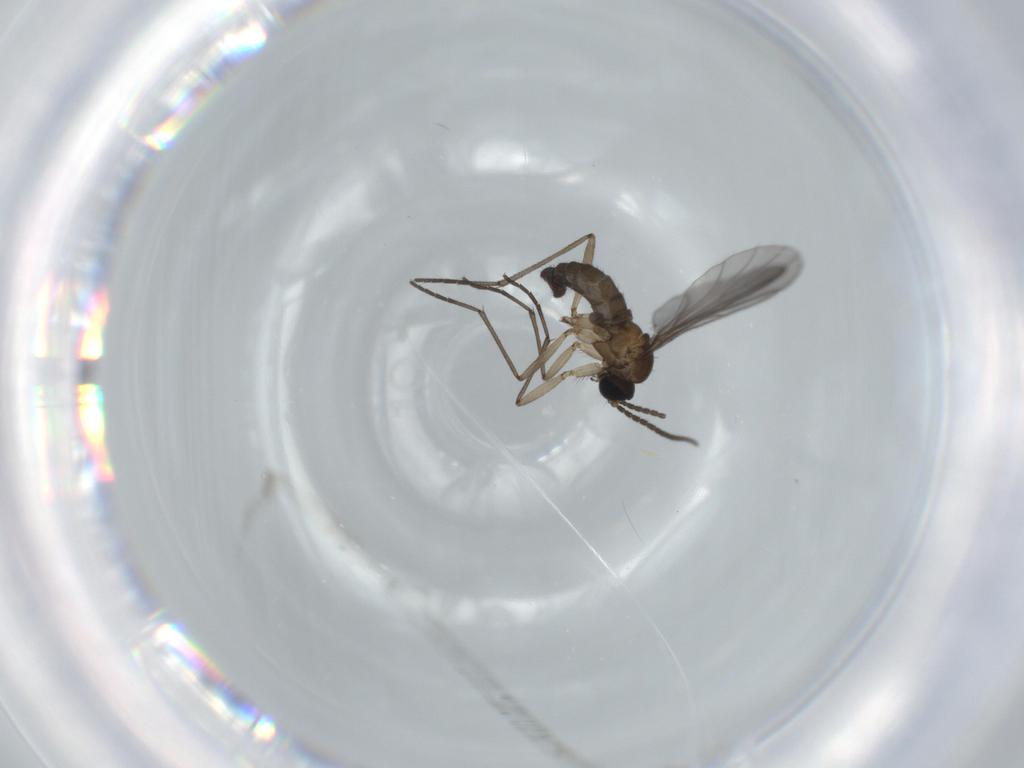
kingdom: Animalia
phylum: Arthropoda
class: Insecta
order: Diptera
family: Sciaridae
